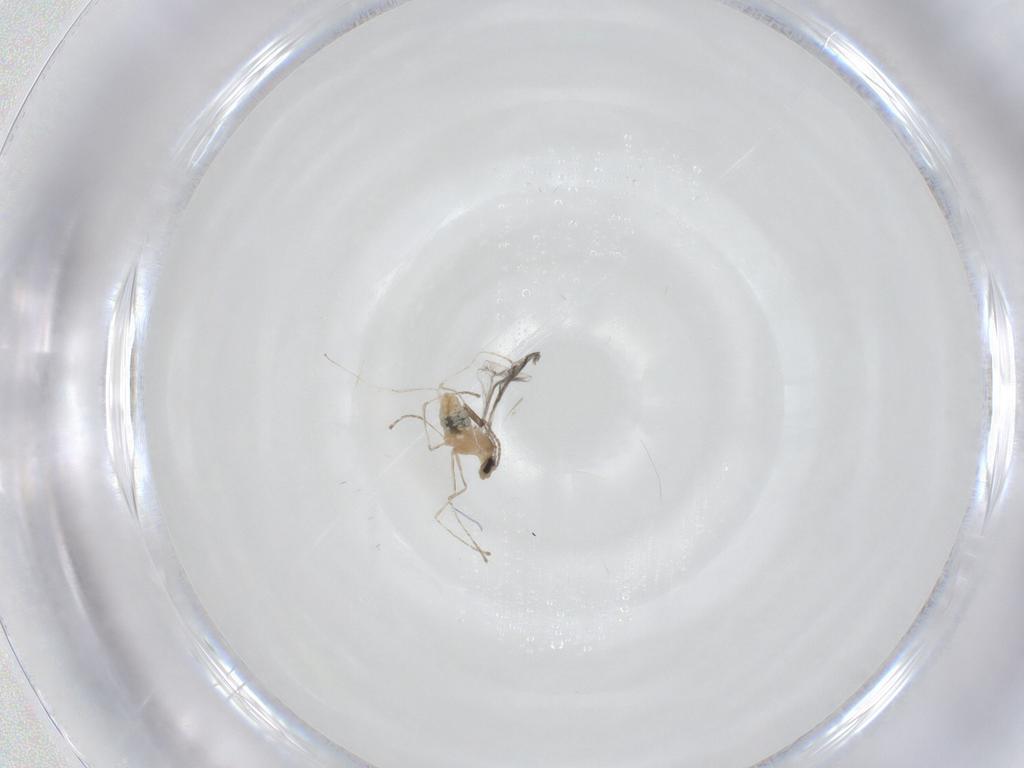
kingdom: Animalia
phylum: Arthropoda
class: Insecta
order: Diptera
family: Cecidomyiidae
